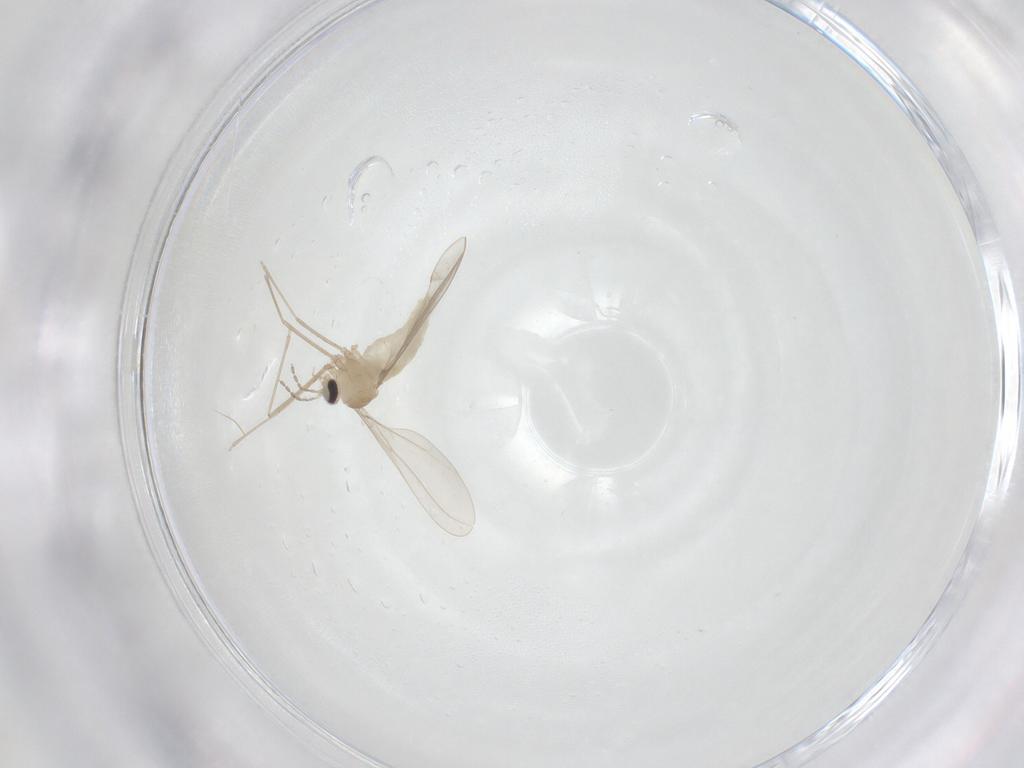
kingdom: Animalia
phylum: Arthropoda
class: Insecta
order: Diptera
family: Cecidomyiidae
